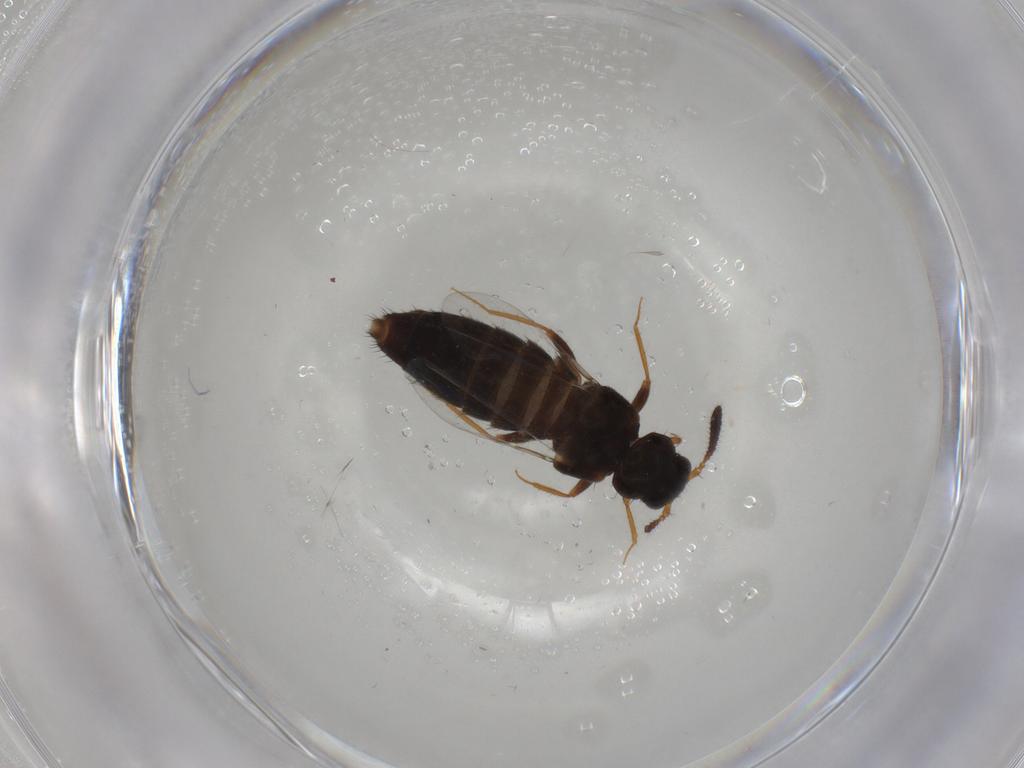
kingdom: Animalia
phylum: Arthropoda
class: Insecta
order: Coleoptera
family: Staphylinidae
